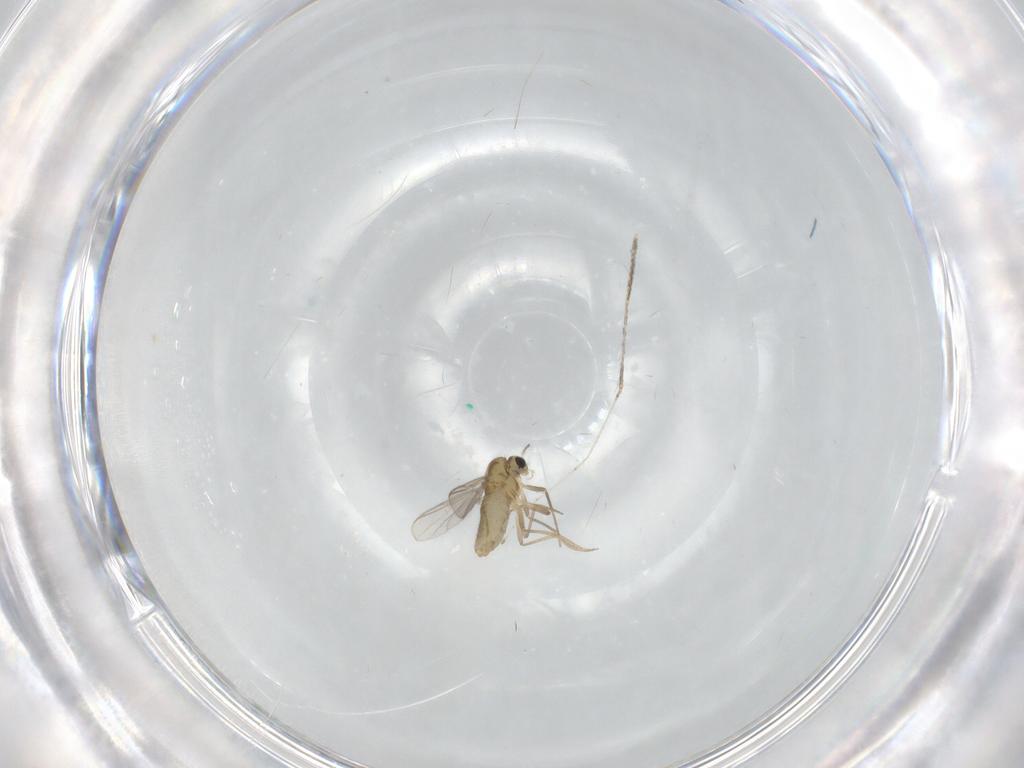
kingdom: Animalia
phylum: Arthropoda
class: Insecta
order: Diptera
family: Chironomidae
